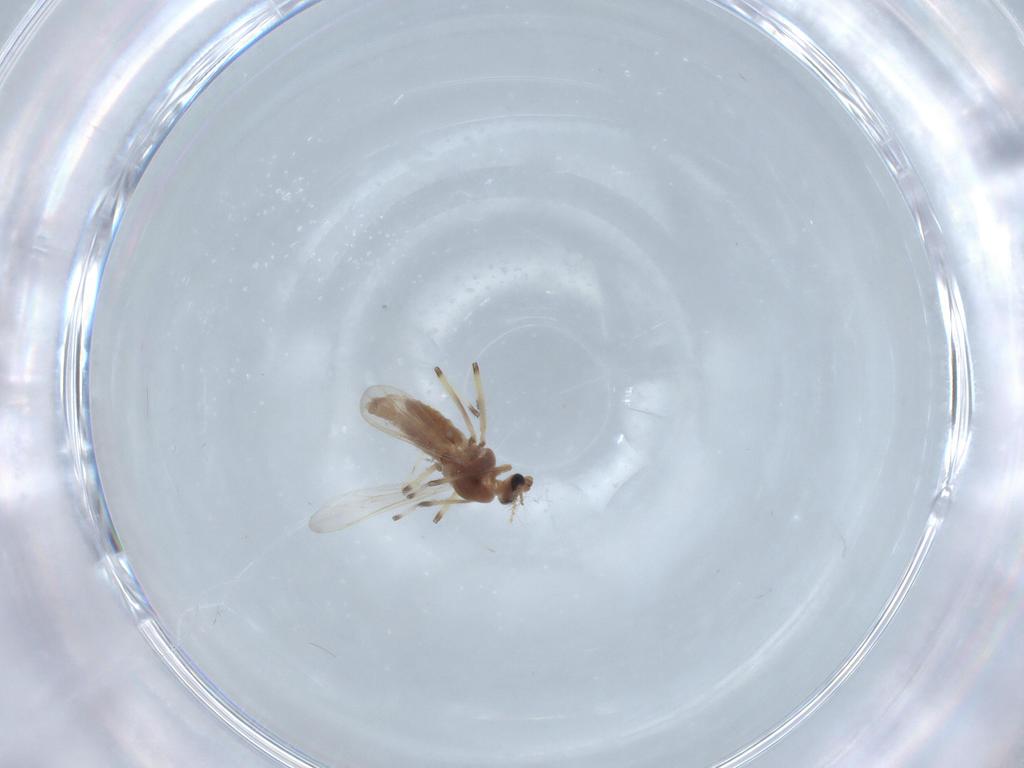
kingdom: Animalia
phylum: Arthropoda
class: Insecta
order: Diptera
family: Chironomidae
